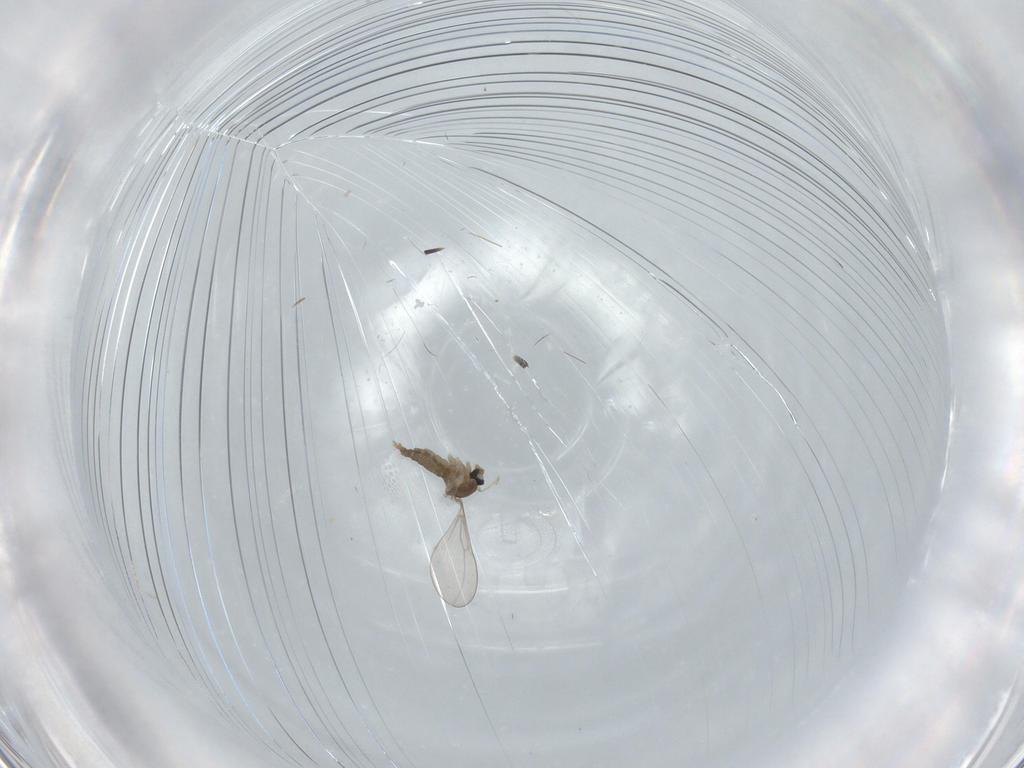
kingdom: Animalia
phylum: Arthropoda
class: Insecta
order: Diptera
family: Cecidomyiidae
